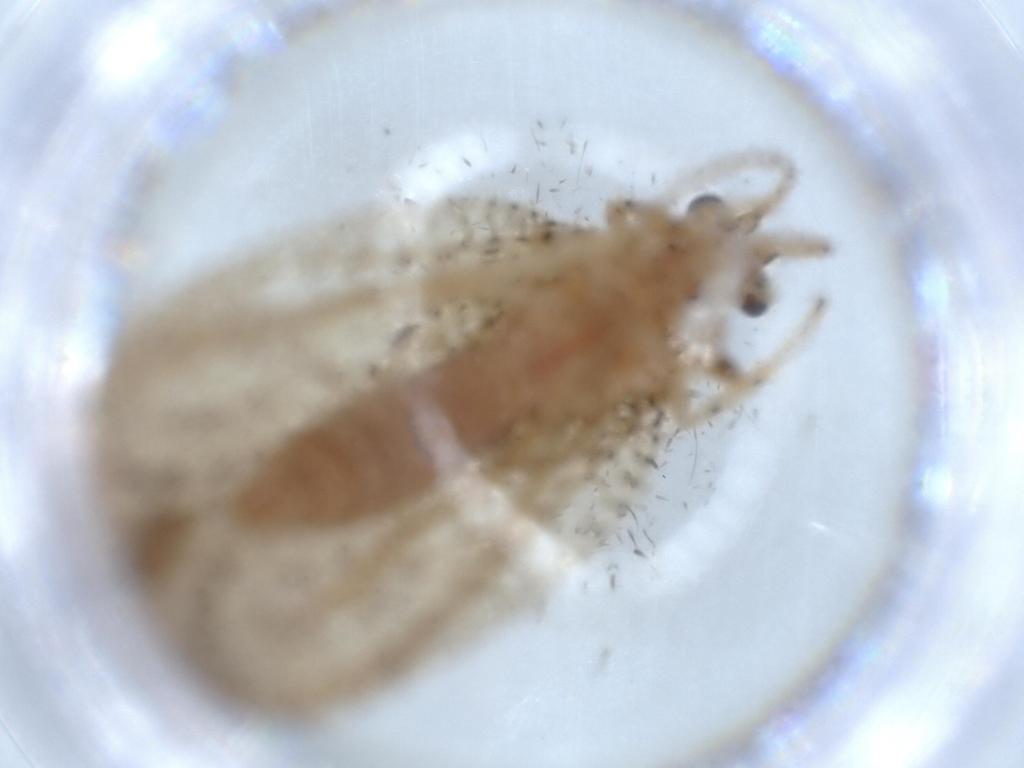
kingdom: Animalia
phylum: Arthropoda
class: Insecta
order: Neuroptera
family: Hemerobiidae
